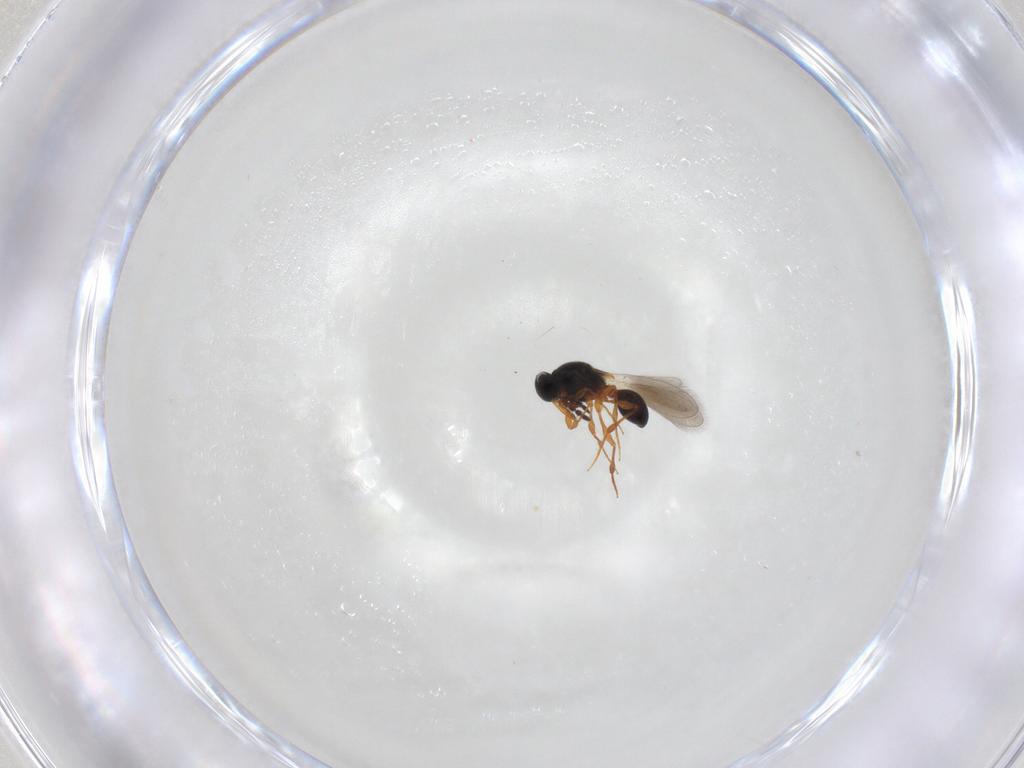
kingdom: Animalia
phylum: Arthropoda
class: Insecta
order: Hymenoptera
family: Platygastridae
